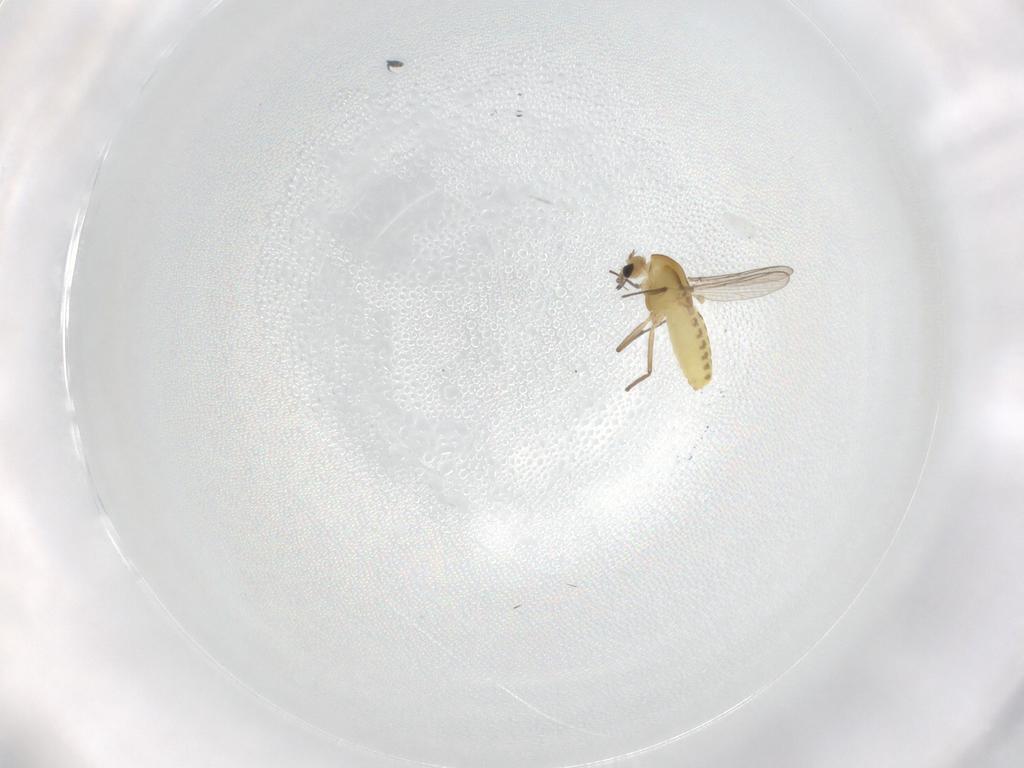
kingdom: Animalia
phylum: Arthropoda
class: Insecta
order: Diptera
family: Chironomidae
